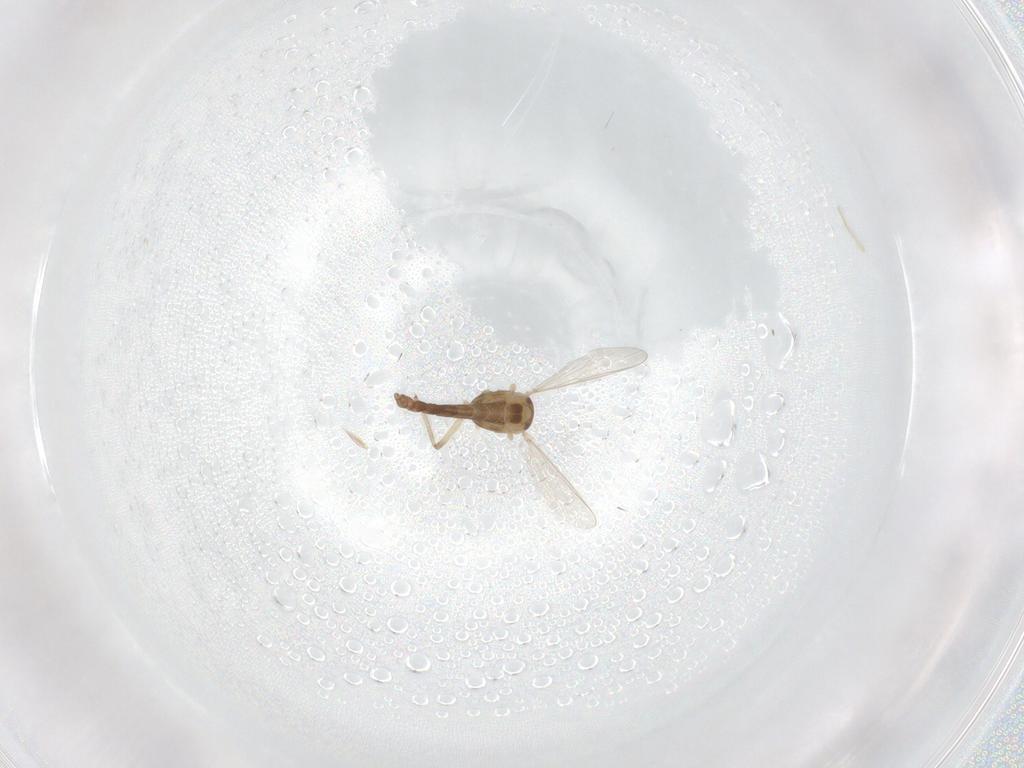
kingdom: Animalia
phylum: Arthropoda
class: Insecta
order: Diptera
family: Chironomidae
